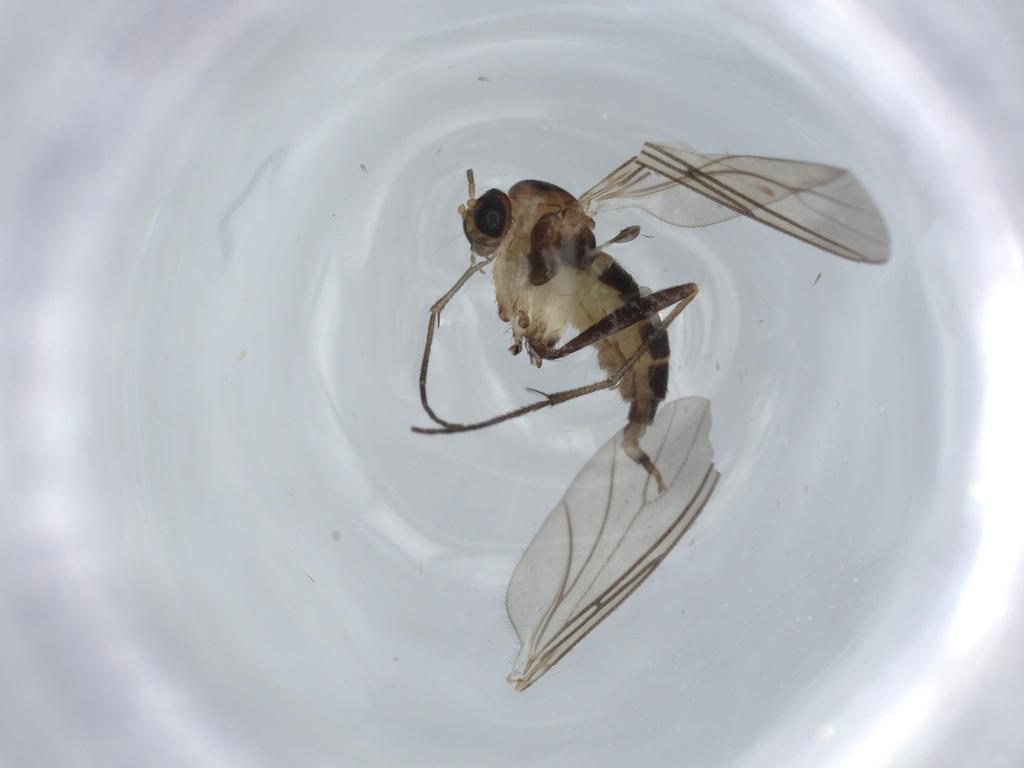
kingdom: Animalia
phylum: Arthropoda
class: Insecta
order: Diptera
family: Sciaridae
